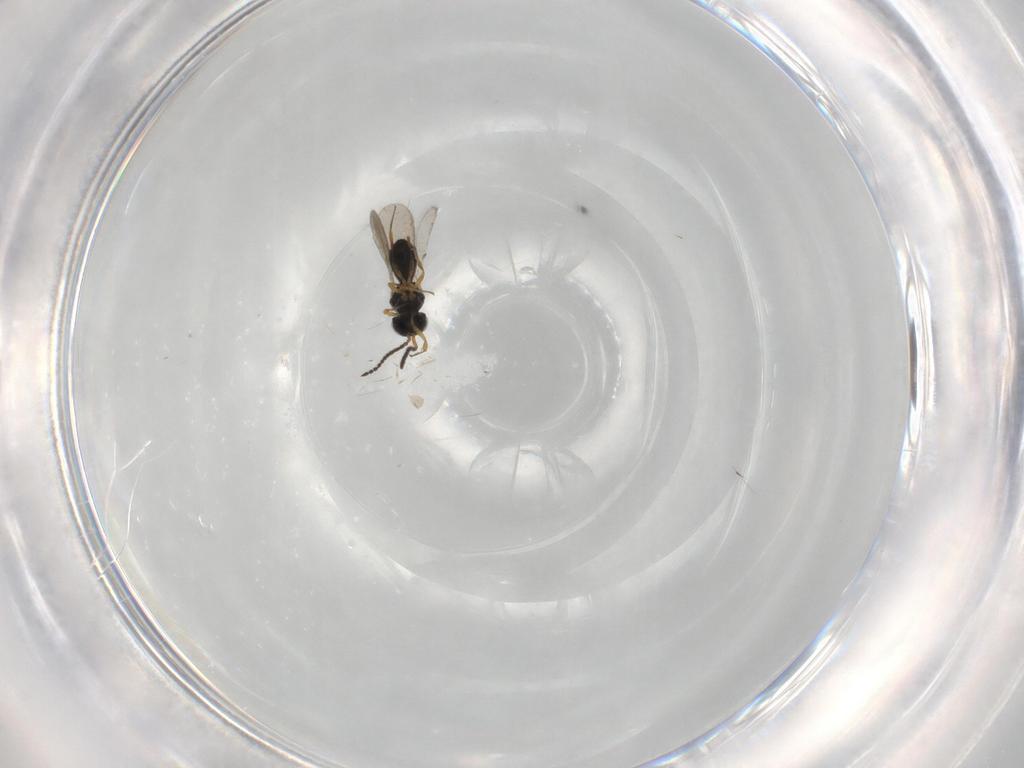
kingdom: Animalia
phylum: Arthropoda
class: Insecta
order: Hymenoptera
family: Scelionidae
